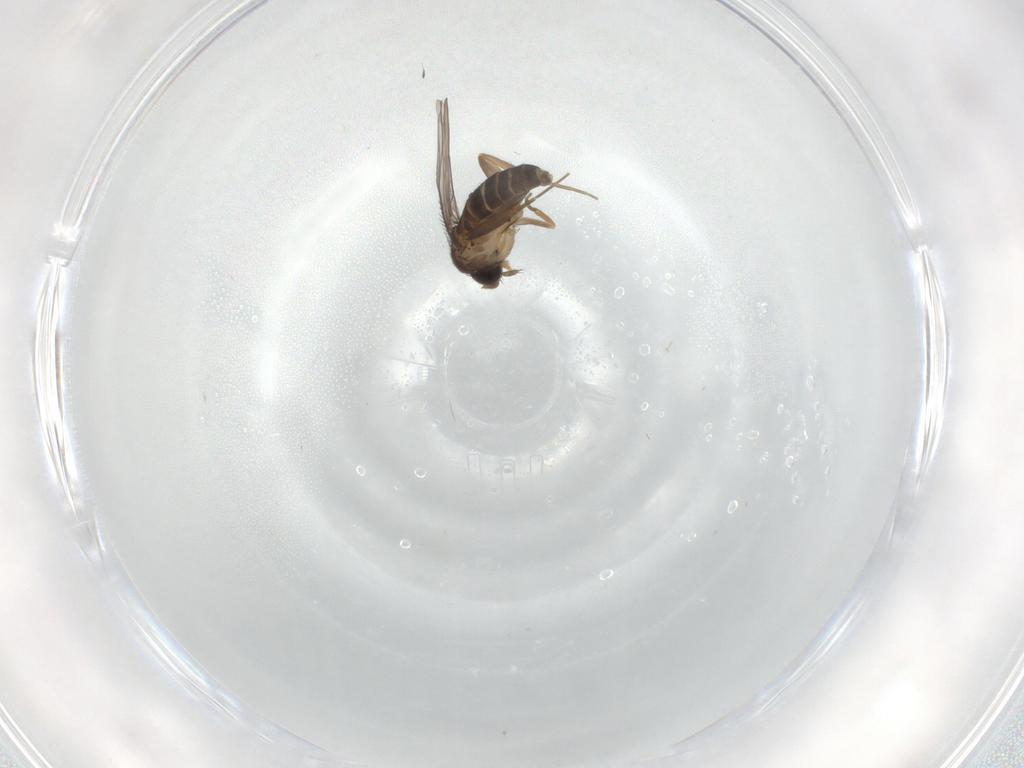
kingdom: Animalia
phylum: Arthropoda
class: Insecta
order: Diptera
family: Phoridae
